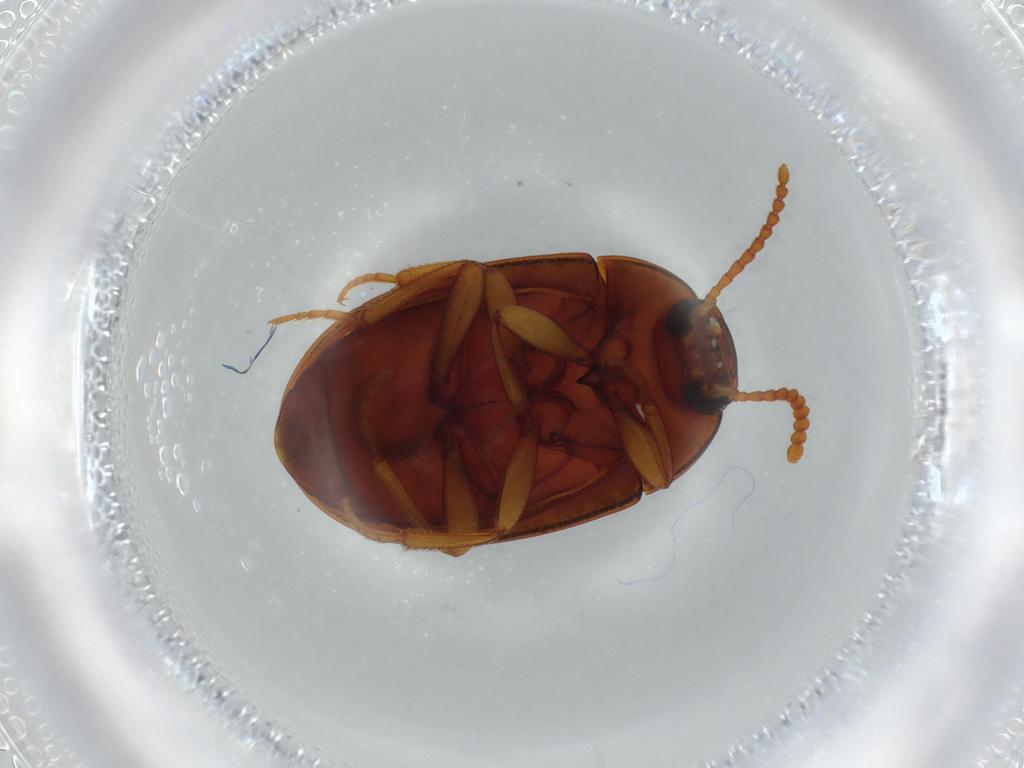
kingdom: Animalia
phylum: Arthropoda
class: Insecta
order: Coleoptera
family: Tenebrionidae
